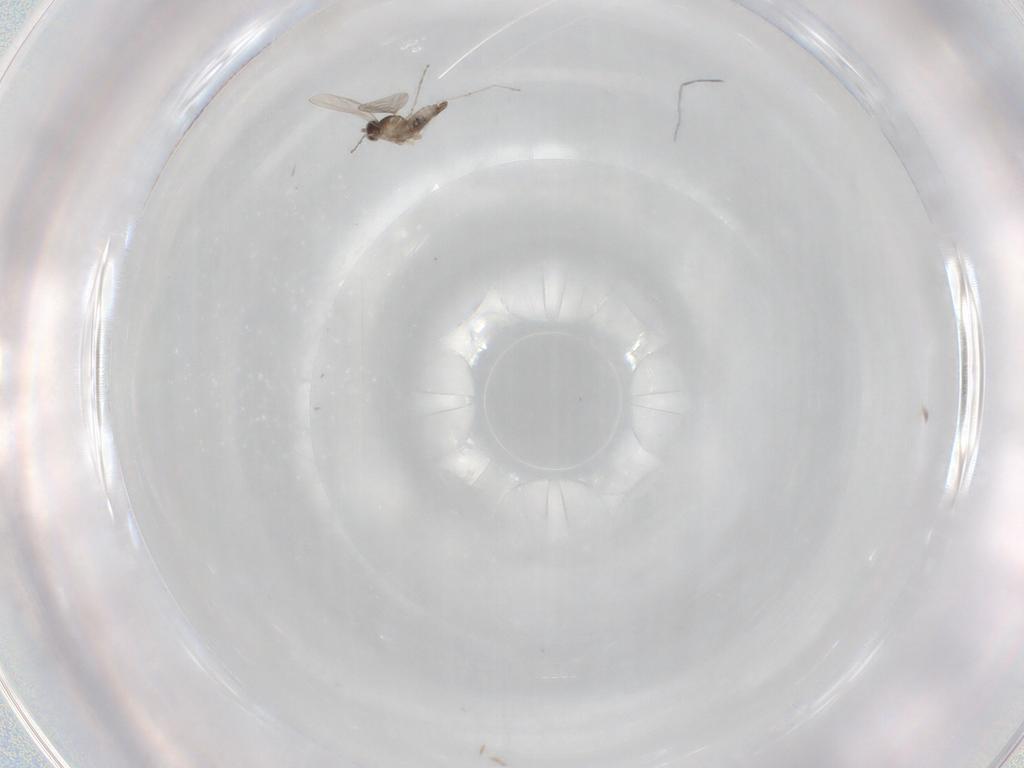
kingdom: Animalia
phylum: Arthropoda
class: Insecta
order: Diptera
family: Cecidomyiidae
